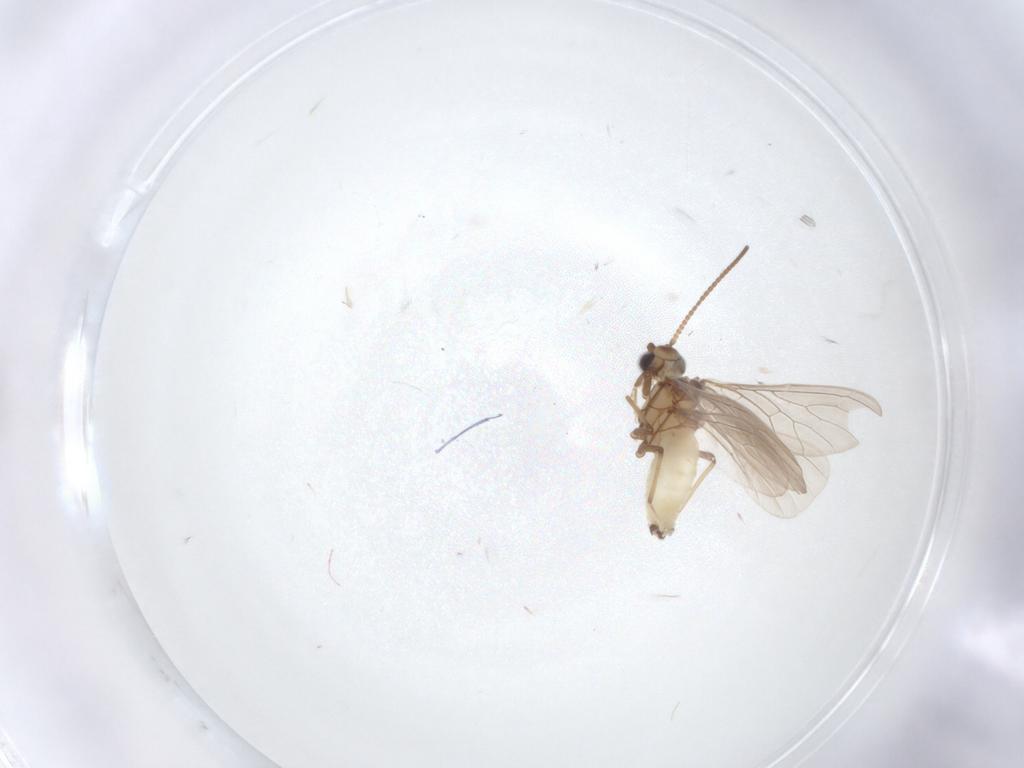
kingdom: Animalia
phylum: Arthropoda
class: Insecta
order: Neuroptera
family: Coniopterygidae
